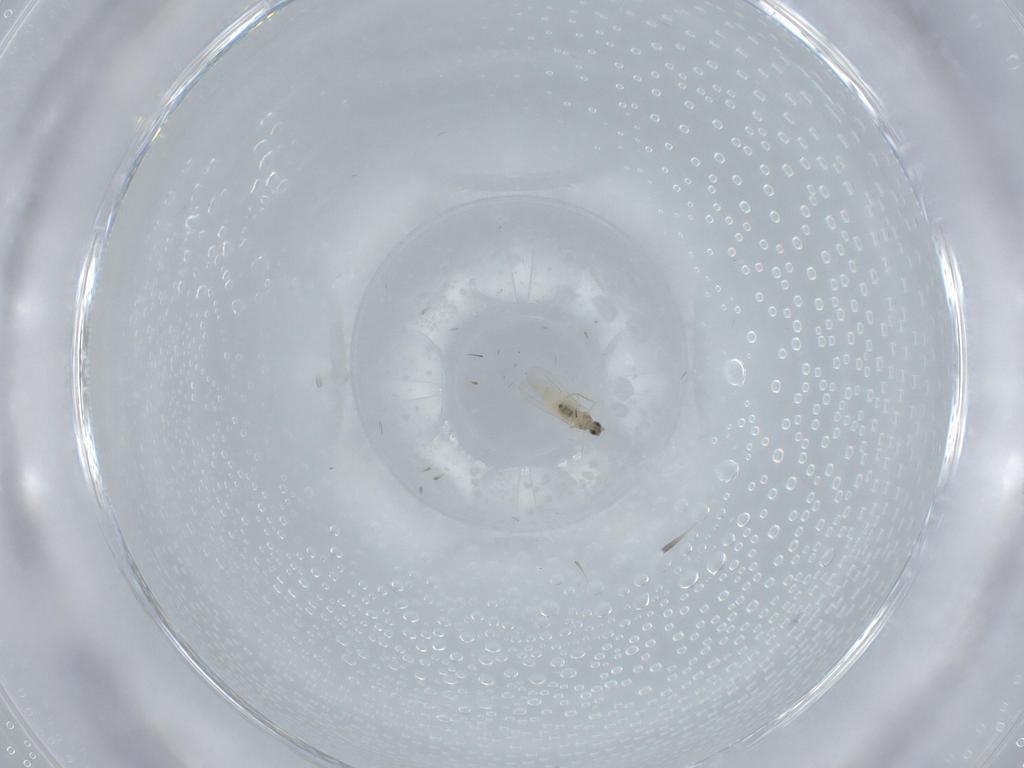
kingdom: Animalia
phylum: Arthropoda
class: Insecta
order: Diptera
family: Cecidomyiidae
